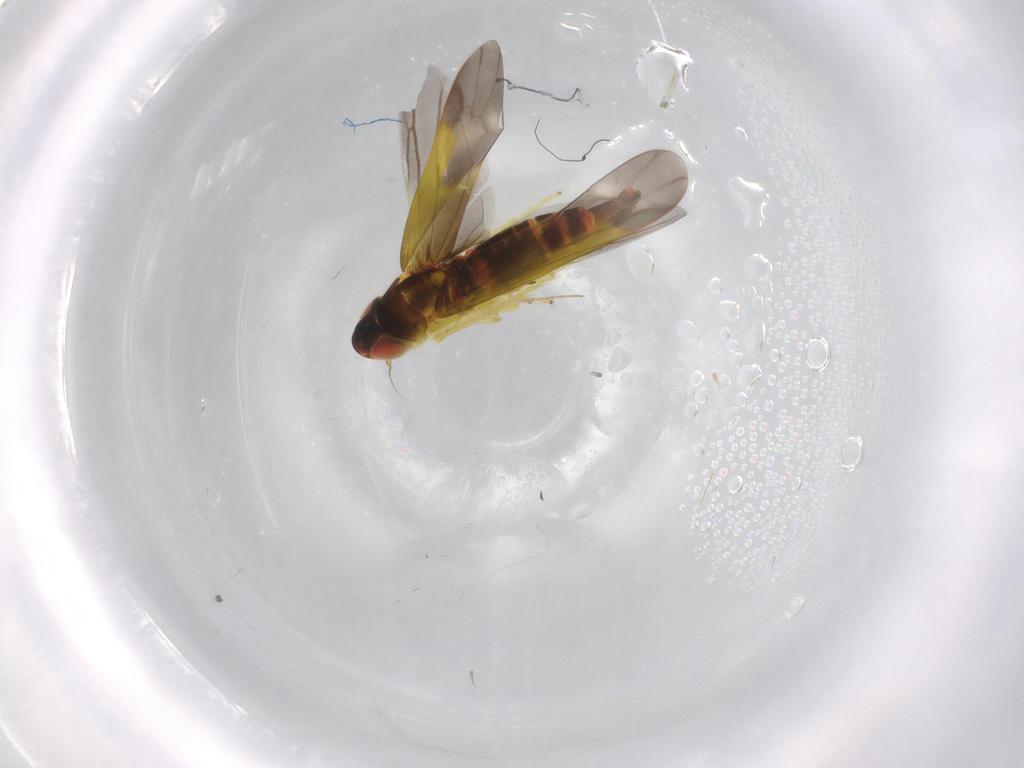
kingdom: Animalia
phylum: Arthropoda
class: Insecta
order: Hemiptera
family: Cicadellidae
